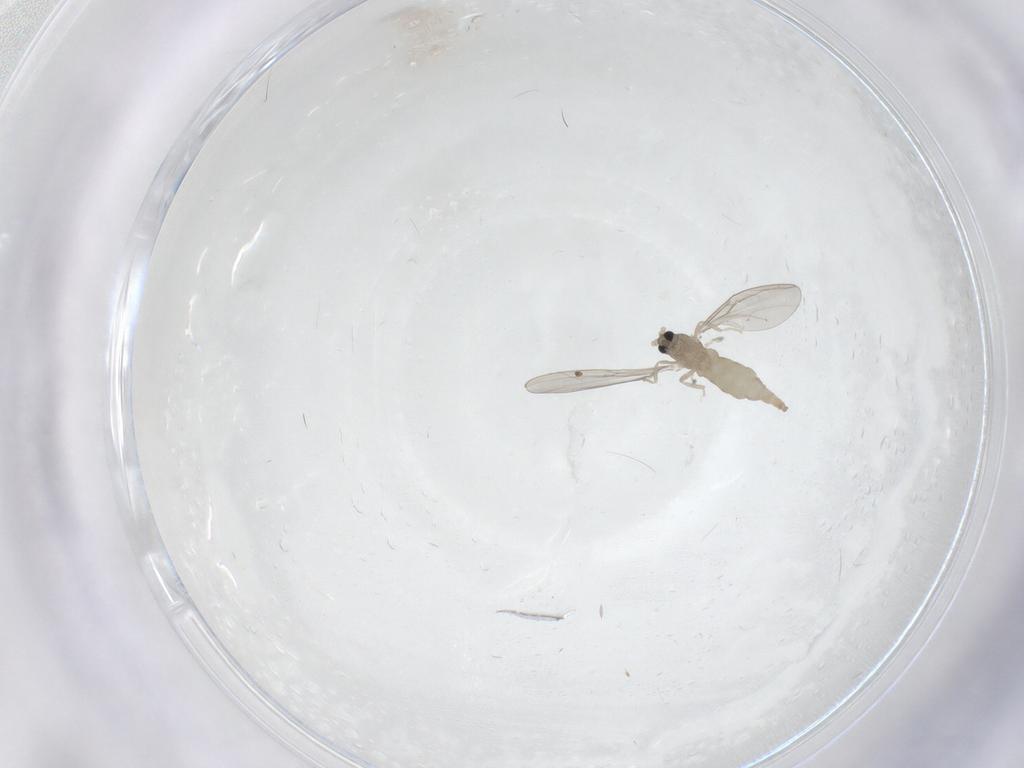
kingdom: Animalia
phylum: Arthropoda
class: Insecta
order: Diptera
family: Cecidomyiidae
